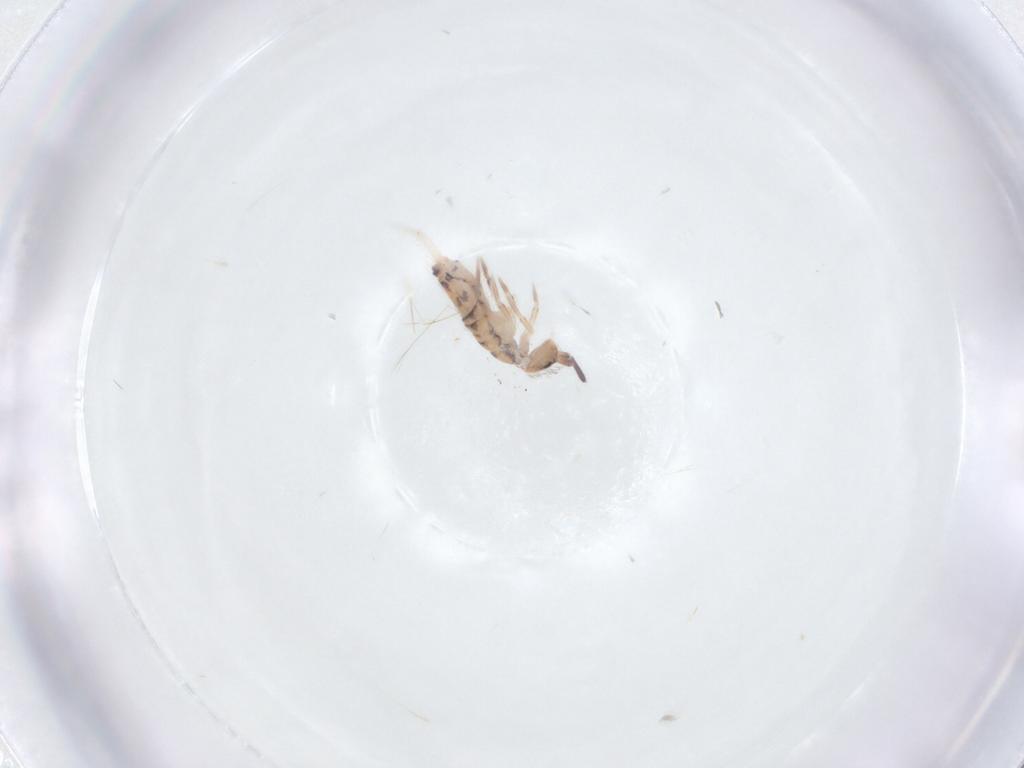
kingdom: Animalia
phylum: Arthropoda
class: Collembola
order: Entomobryomorpha
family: Entomobryidae
